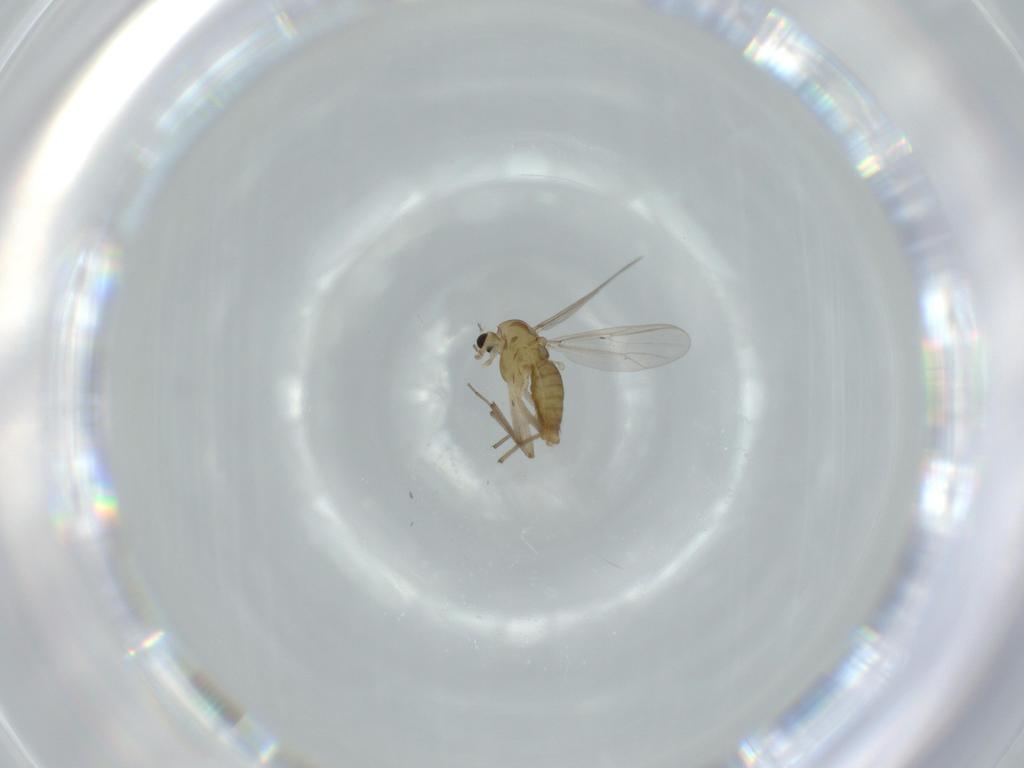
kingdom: Animalia
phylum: Arthropoda
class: Insecta
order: Diptera
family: Chironomidae
